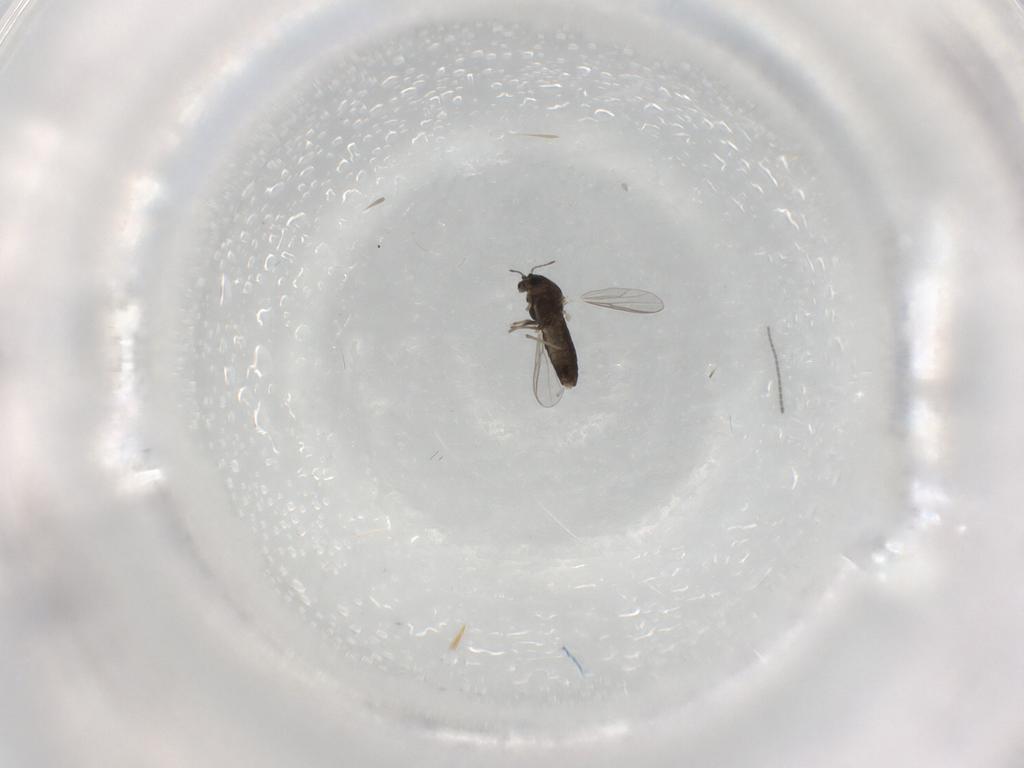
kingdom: Animalia
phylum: Arthropoda
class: Insecta
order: Diptera
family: Chironomidae
